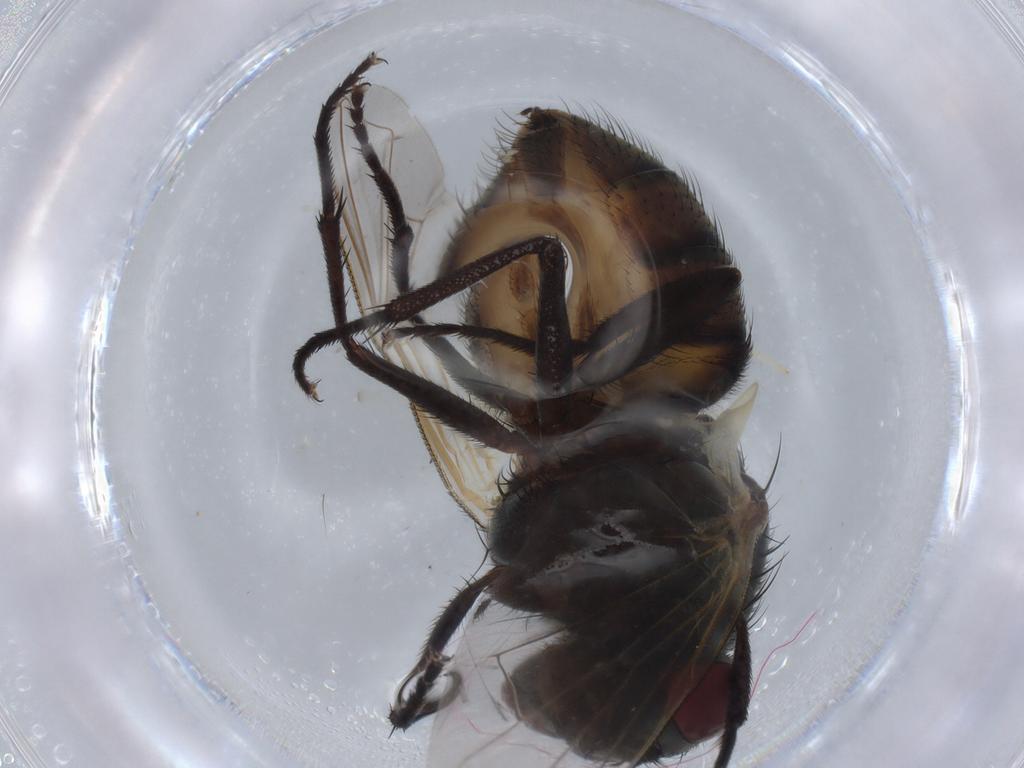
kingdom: Animalia
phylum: Arthropoda
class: Insecta
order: Diptera
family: Muscidae
